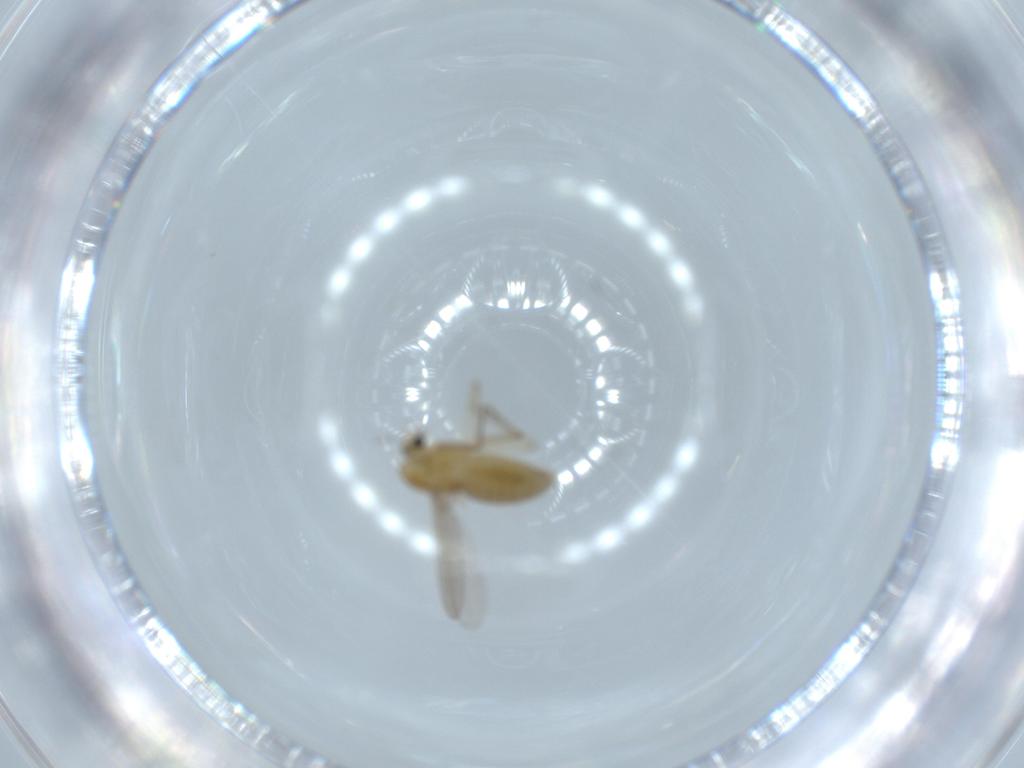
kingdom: Animalia
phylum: Arthropoda
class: Insecta
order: Diptera
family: Chironomidae
